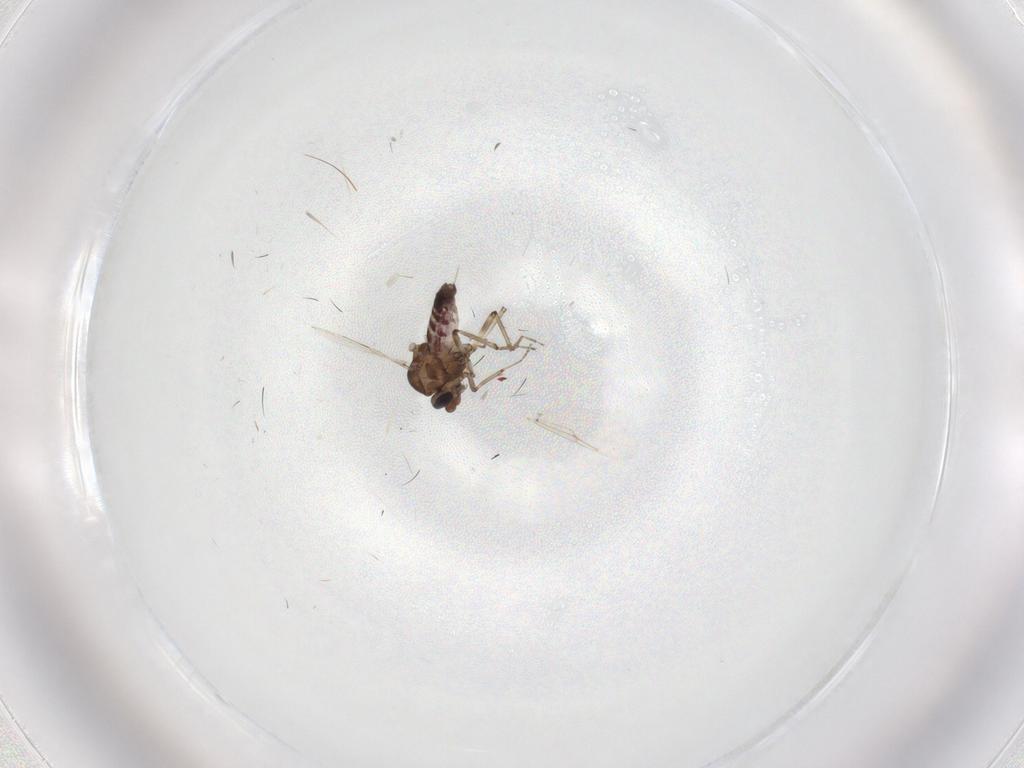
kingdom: Animalia
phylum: Arthropoda
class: Insecta
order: Diptera
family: Ceratopogonidae
